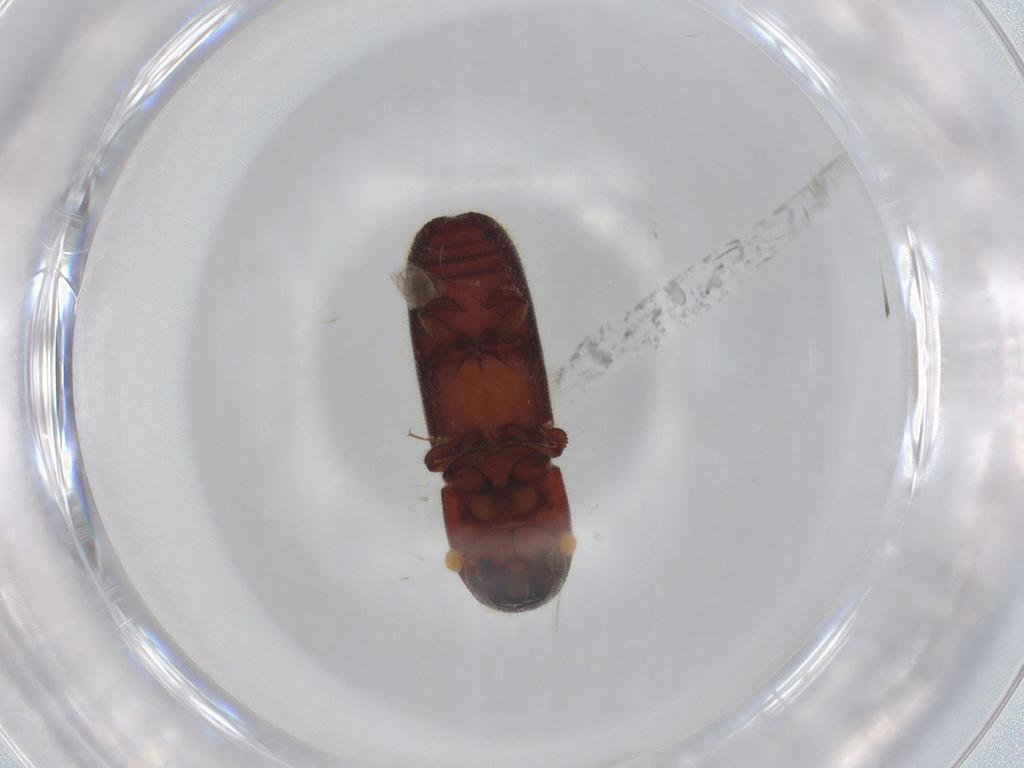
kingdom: Animalia
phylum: Arthropoda
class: Insecta
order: Coleoptera
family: Curculionidae
